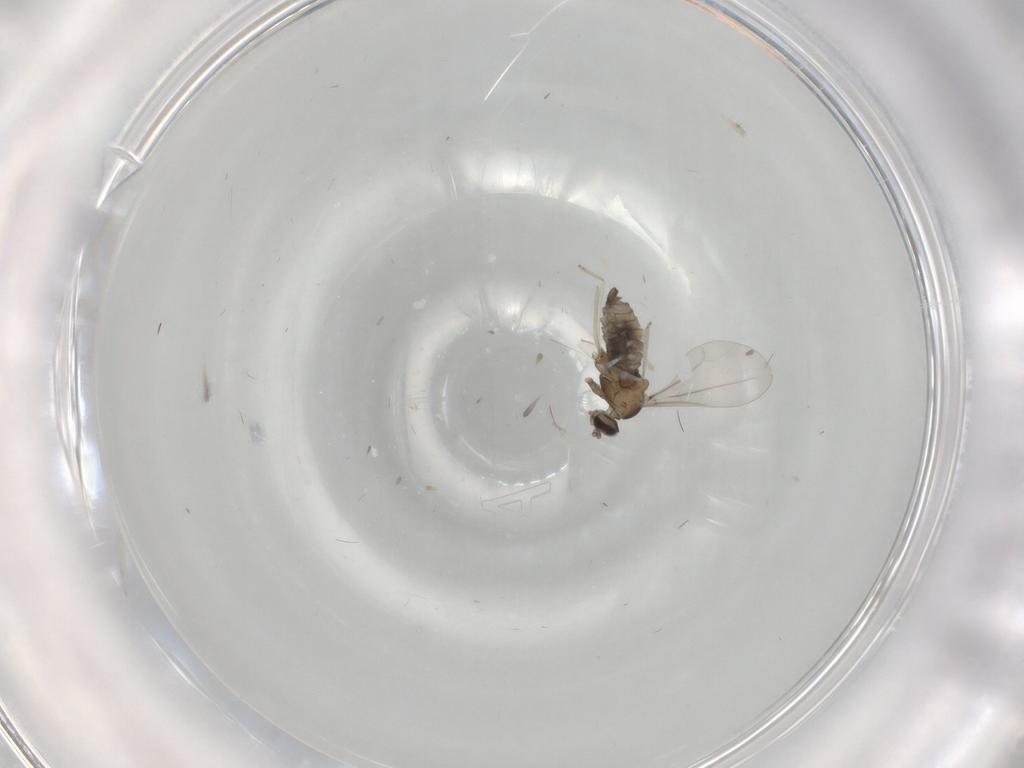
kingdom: Animalia
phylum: Arthropoda
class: Insecta
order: Diptera
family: Cecidomyiidae
